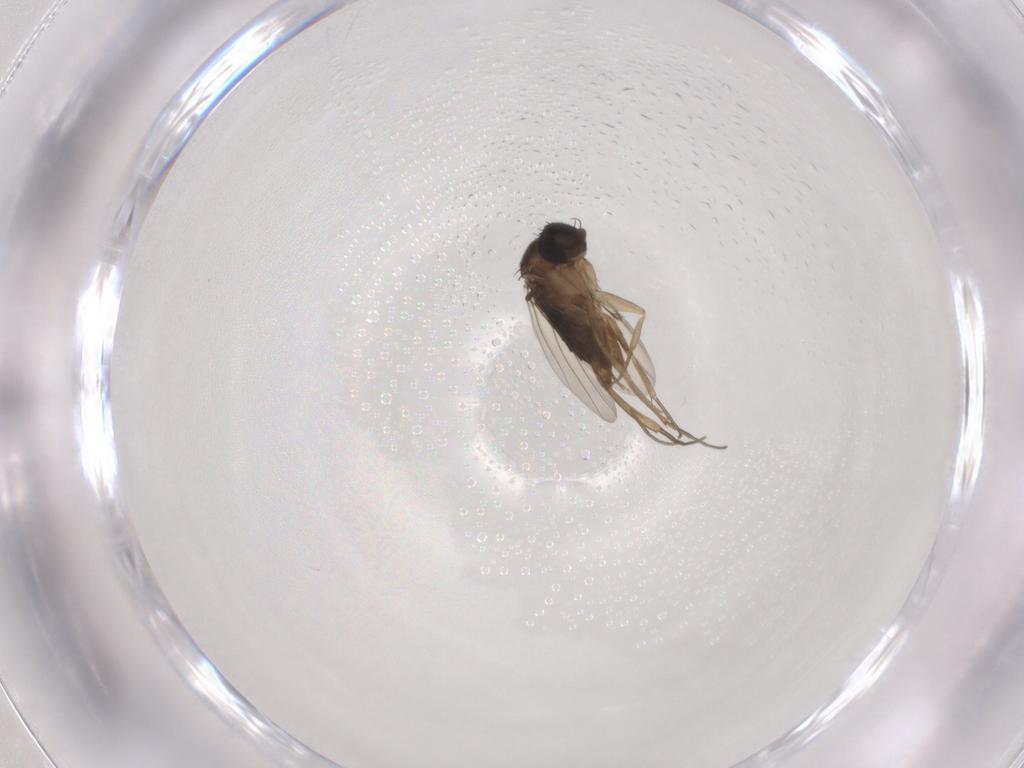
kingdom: Animalia
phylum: Arthropoda
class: Insecta
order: Diptera
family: Phoridae
